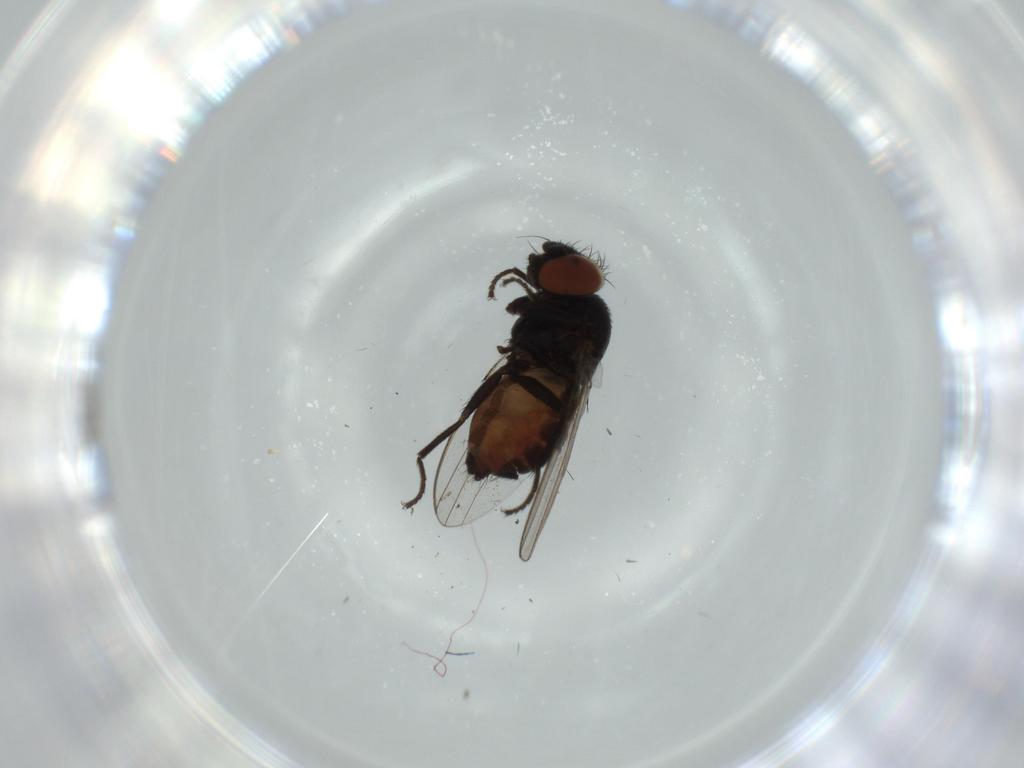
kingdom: Animalia
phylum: Arthropoda
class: Insecta
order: Diptera
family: Milichiidae
